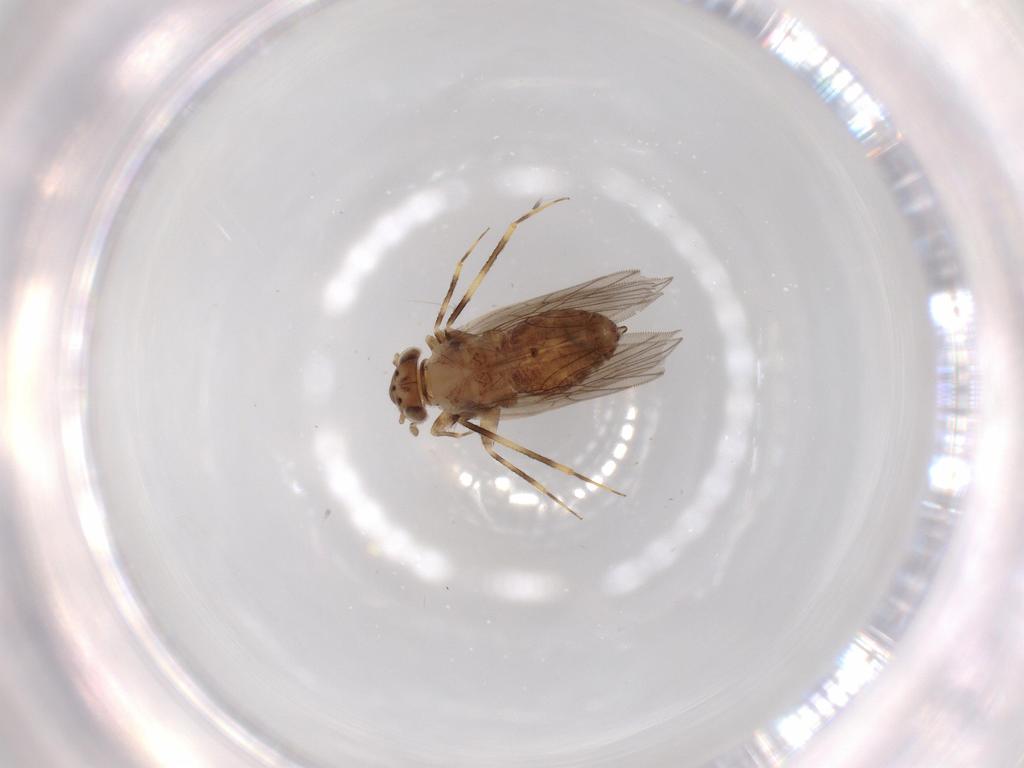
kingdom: Animalia
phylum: Arthropoda
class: Insecta
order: Psocodea
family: Lepidopsocidae
